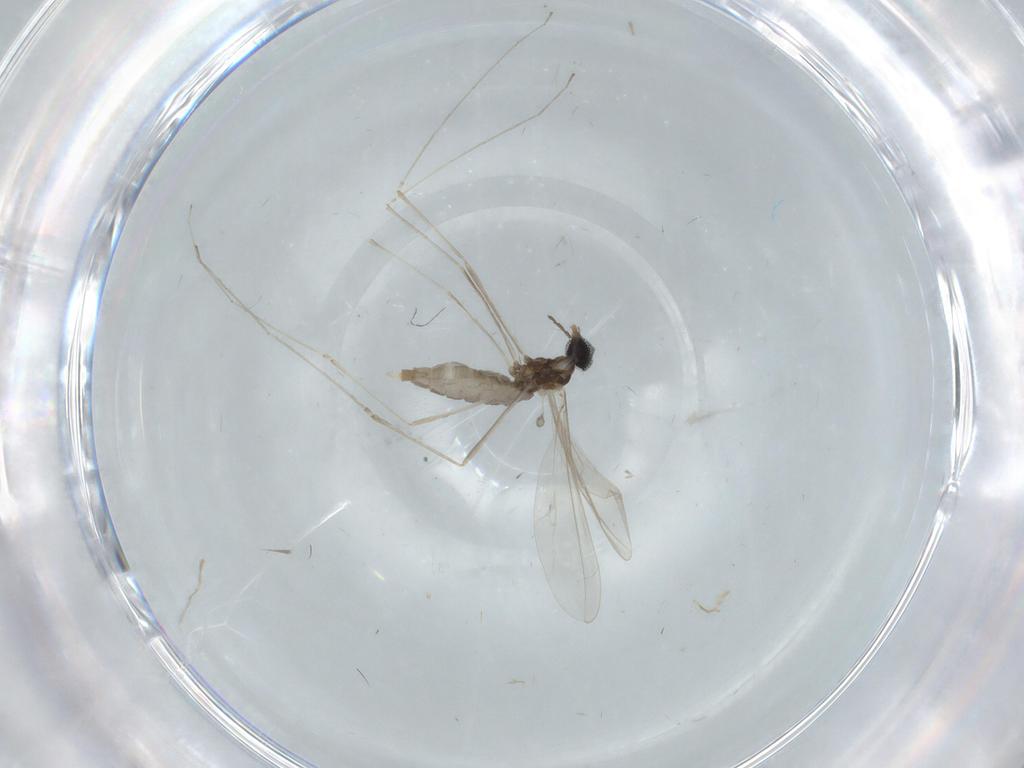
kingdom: Animalia
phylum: Arthropoda
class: Insecta
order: Diptera
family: Cecidomyiidae
